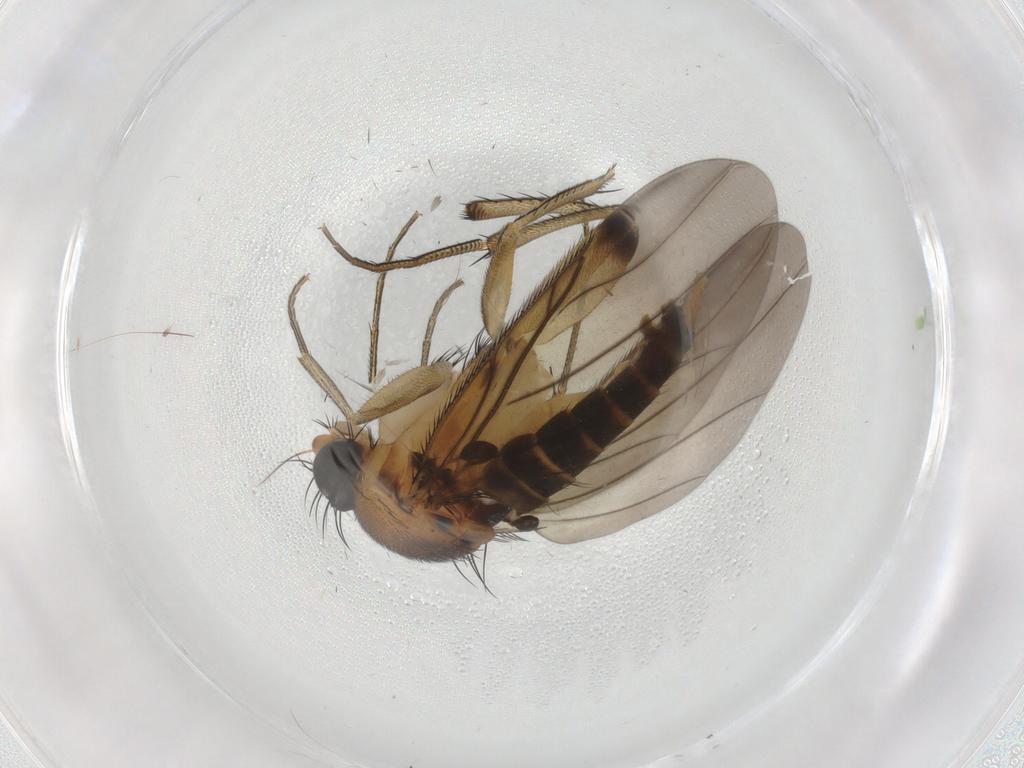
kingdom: Animalia
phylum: Arthropoda
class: Insecta
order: Diptera
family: Phoridae
